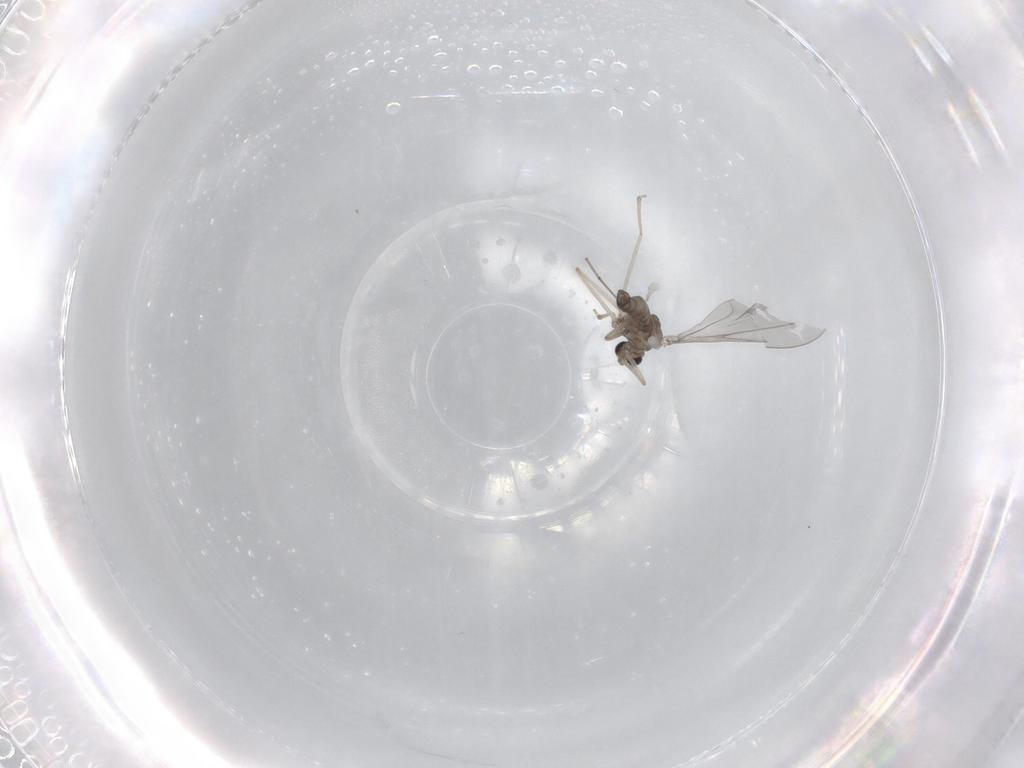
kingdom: Animalia
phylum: Arthropoda
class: Insecta
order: Diptera
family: Cecidomyiidae
